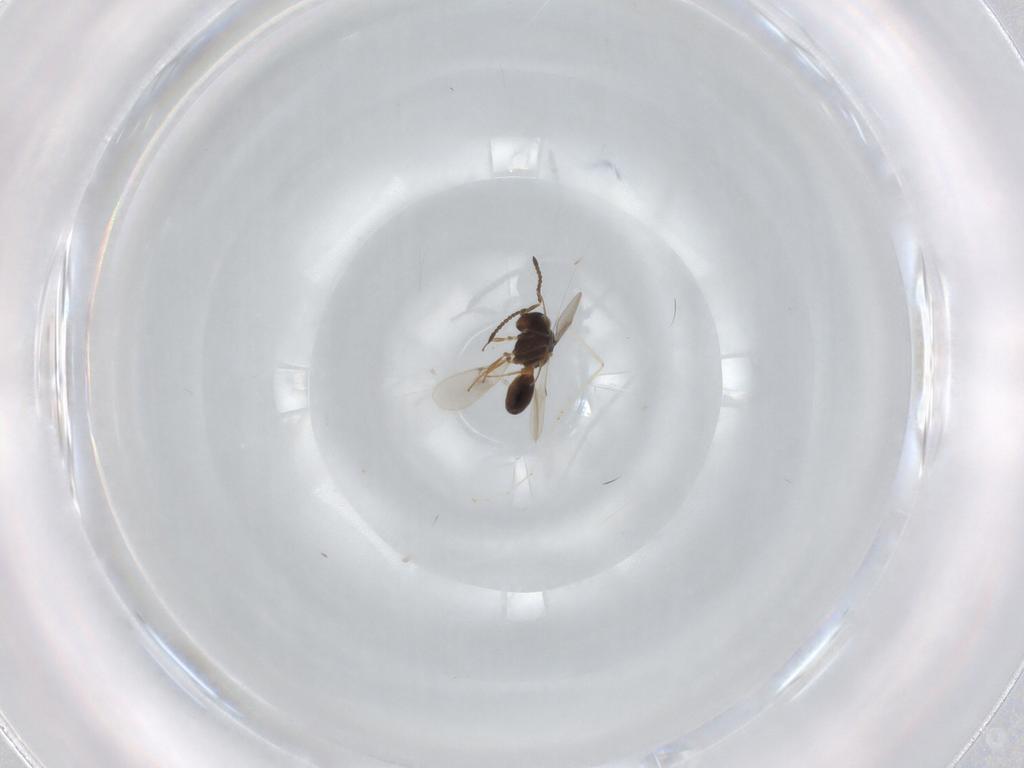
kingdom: Animalia
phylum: Arthropoda
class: Insecta
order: Hymenoptera
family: Scelionidae
